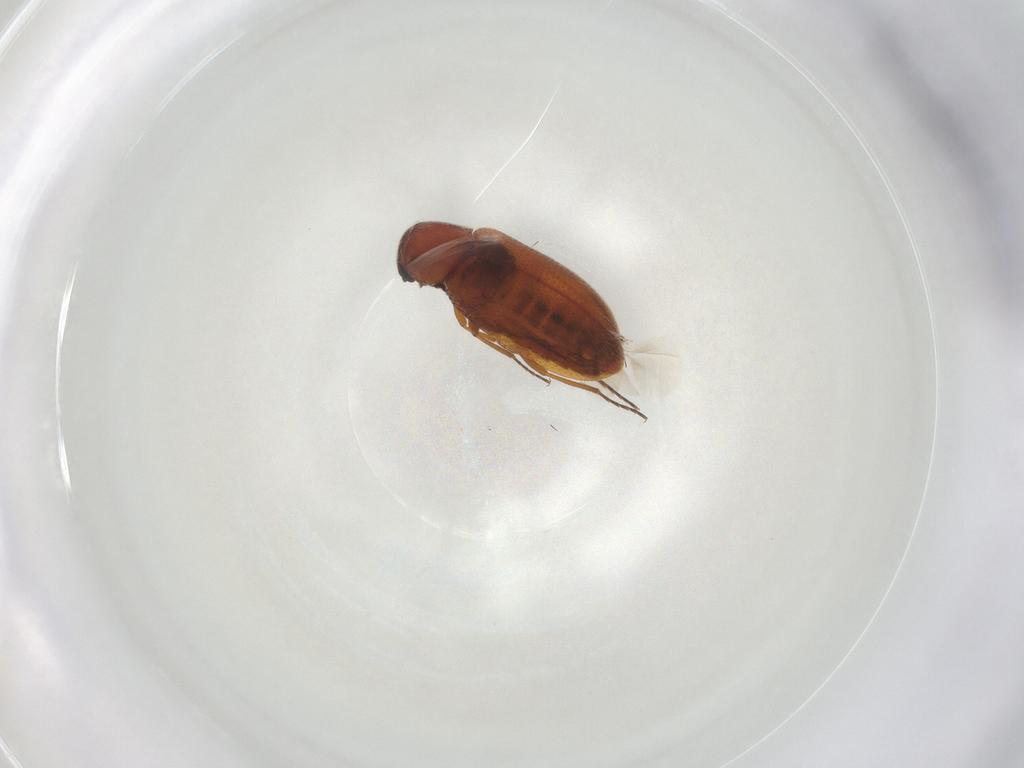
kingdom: Animalia
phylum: Arthropoda
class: Insecta
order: Coleoptera
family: Rhadalidae
